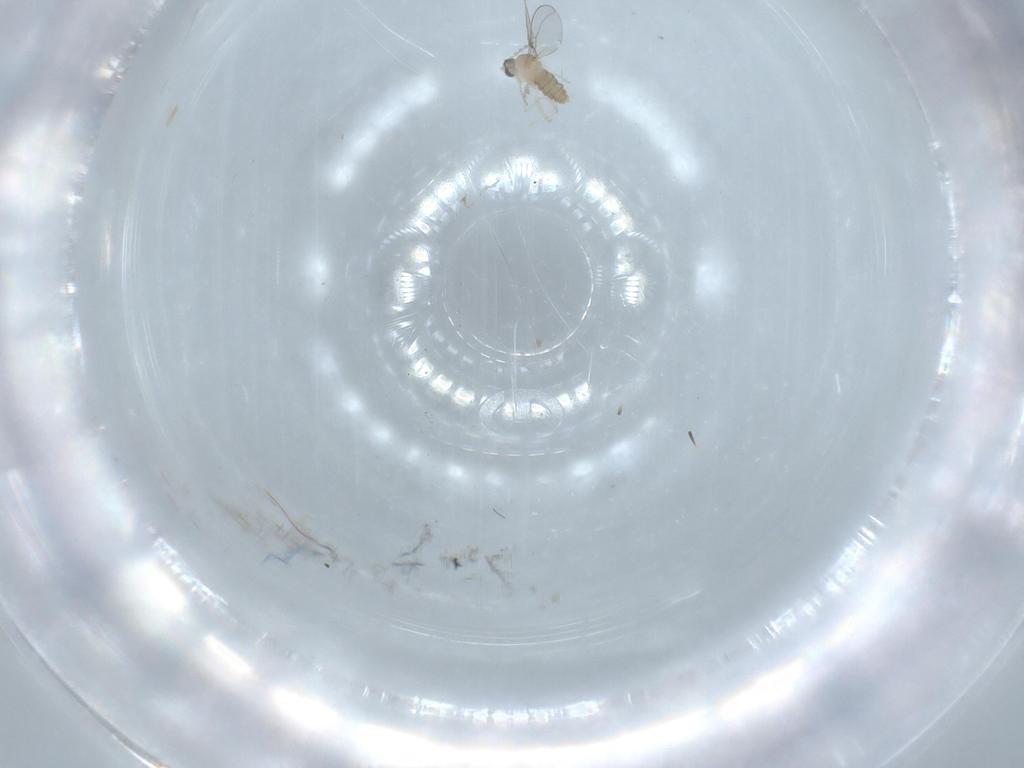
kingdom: Animalia
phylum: Arthropoda
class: Insecta
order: Diptera
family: Cecidomyiidae
